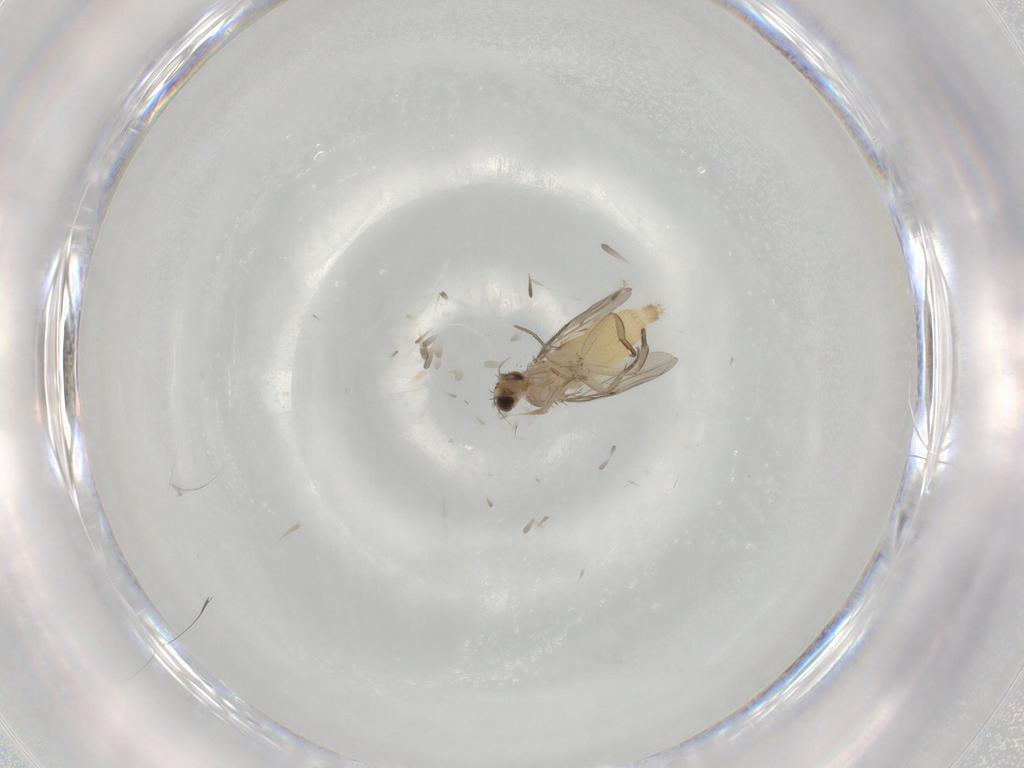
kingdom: Animalia
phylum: Arthropoda
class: Insecta
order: Diptera
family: Phoridae
